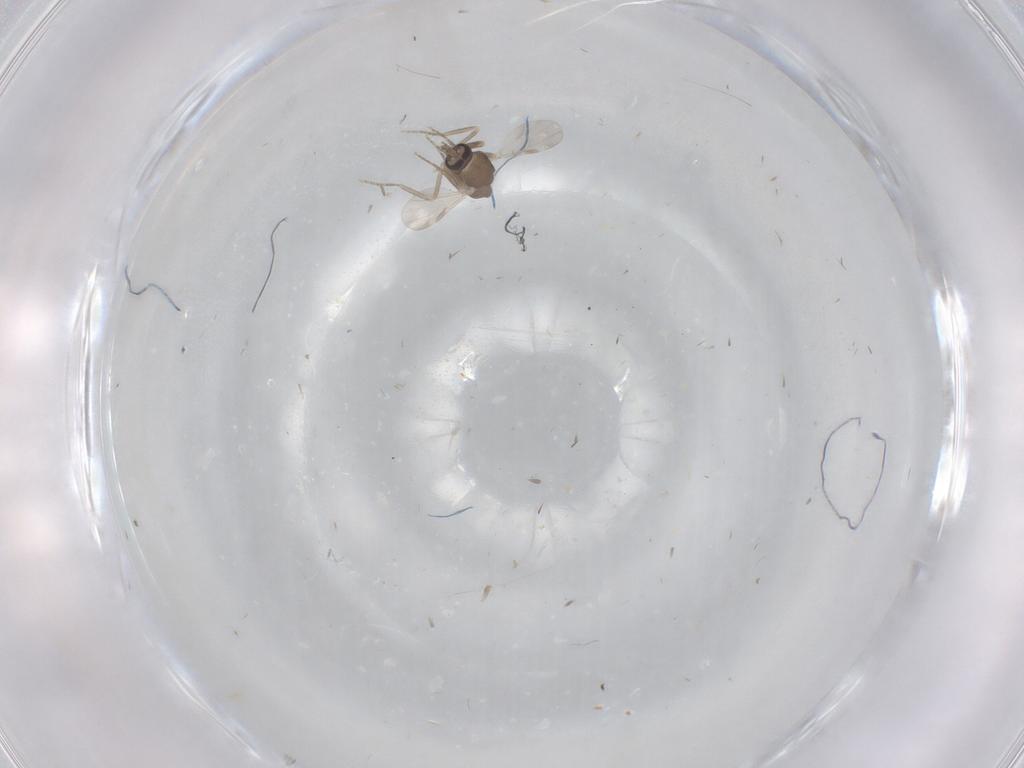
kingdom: Animalia
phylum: Arthropoda
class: Insecta
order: Diptera
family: Ceratopogonidae
